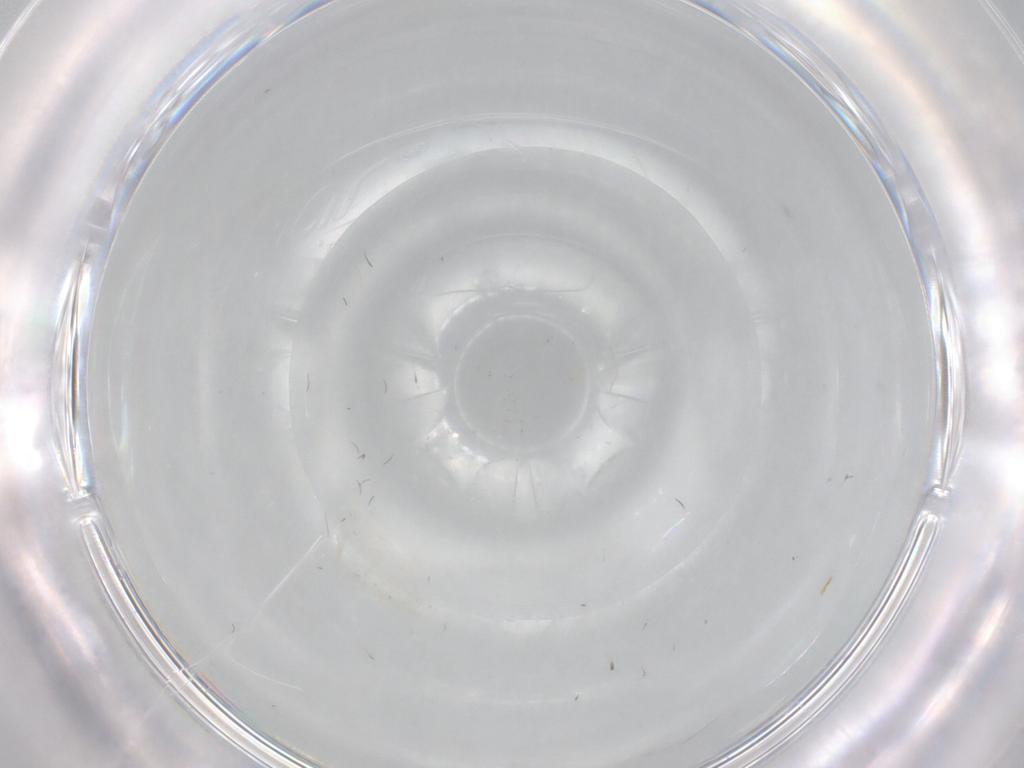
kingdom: Animalia
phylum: Arthropoda
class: Insecta
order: Diptera
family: Cecidomyiidae
